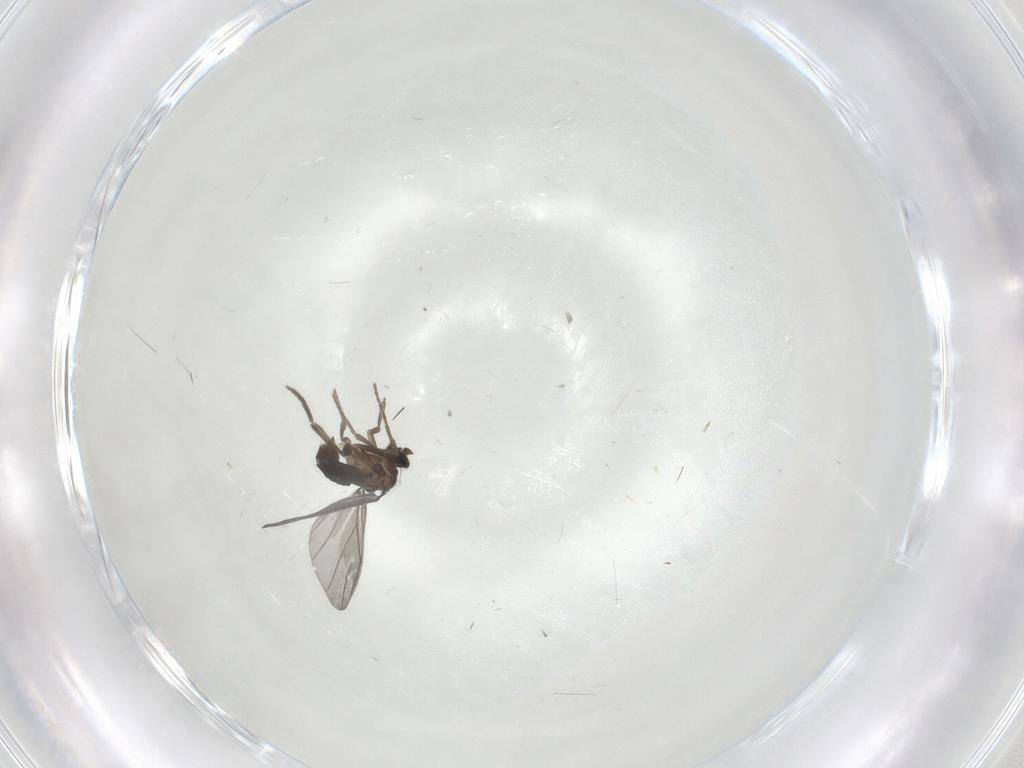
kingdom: Animalia
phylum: Arthropoda
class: Insecta
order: Diptera
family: Phoridae
